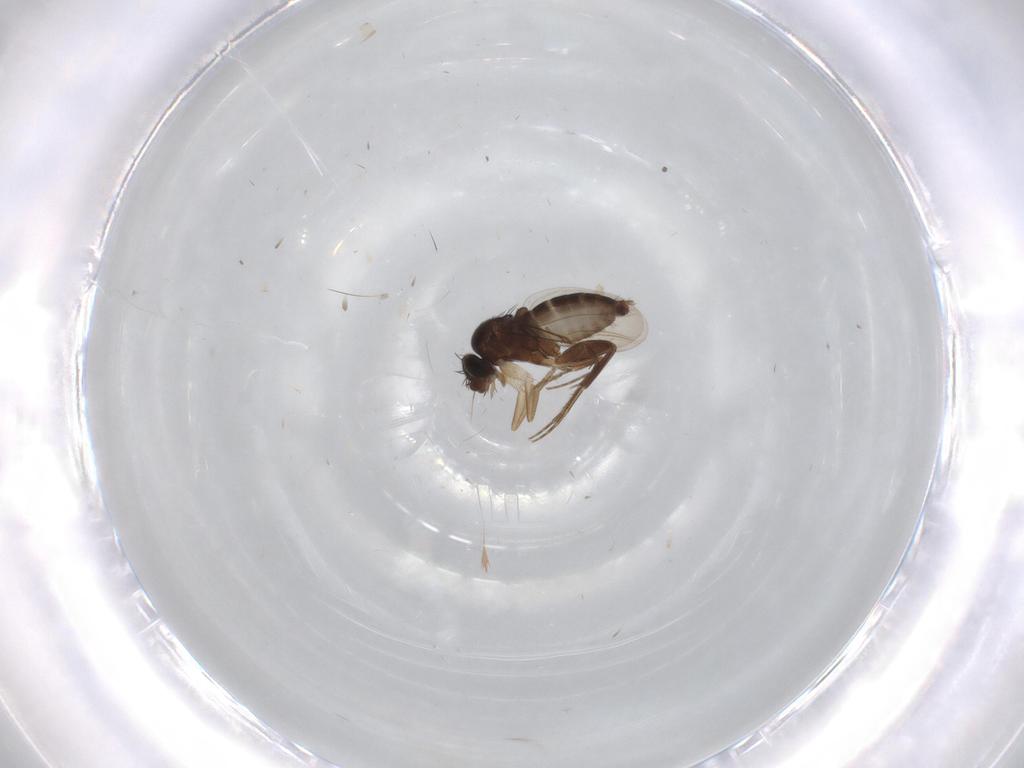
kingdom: Animalia
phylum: Arthropoda
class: Insecta
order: Diptera
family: Phoridae
